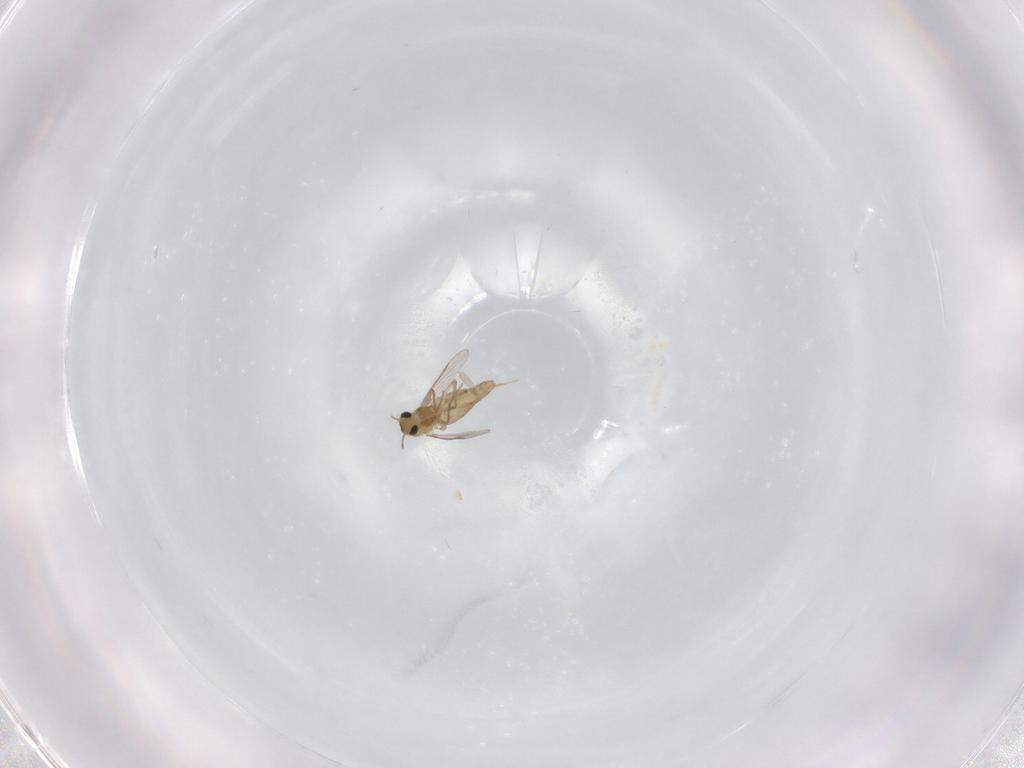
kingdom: Animalia
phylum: Arthropoda
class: Insecta
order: Diptera
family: Chironomidae
